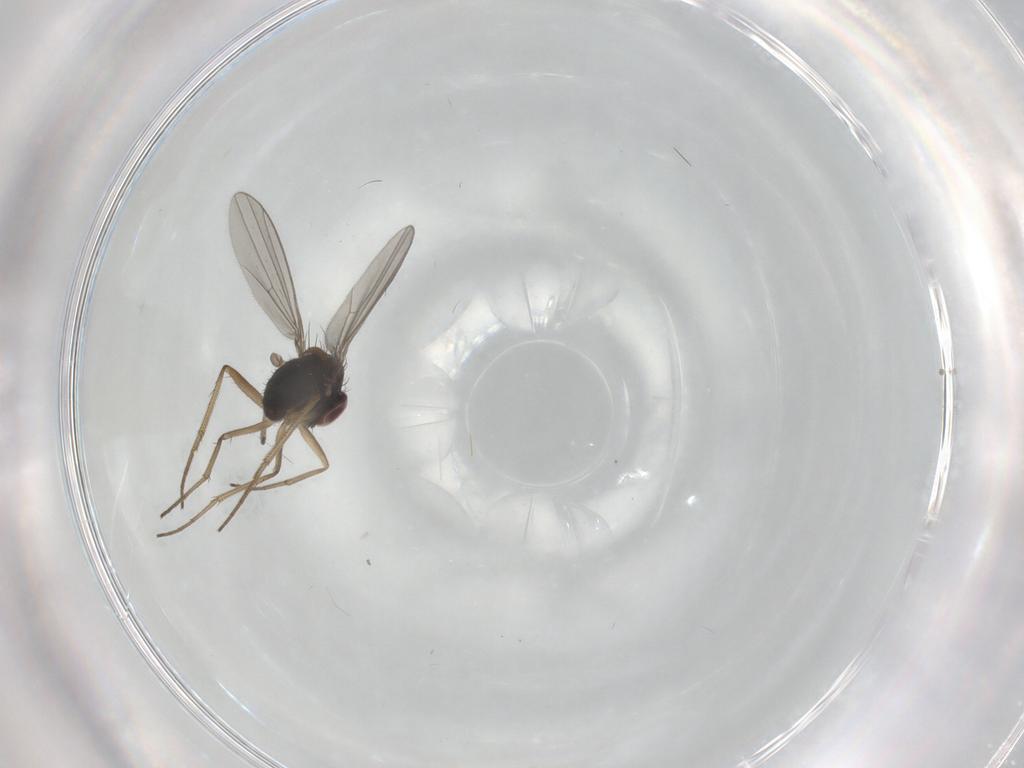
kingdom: Animalia
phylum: Arthropoda
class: Insecta
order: Diptera
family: Dolichopodidae
